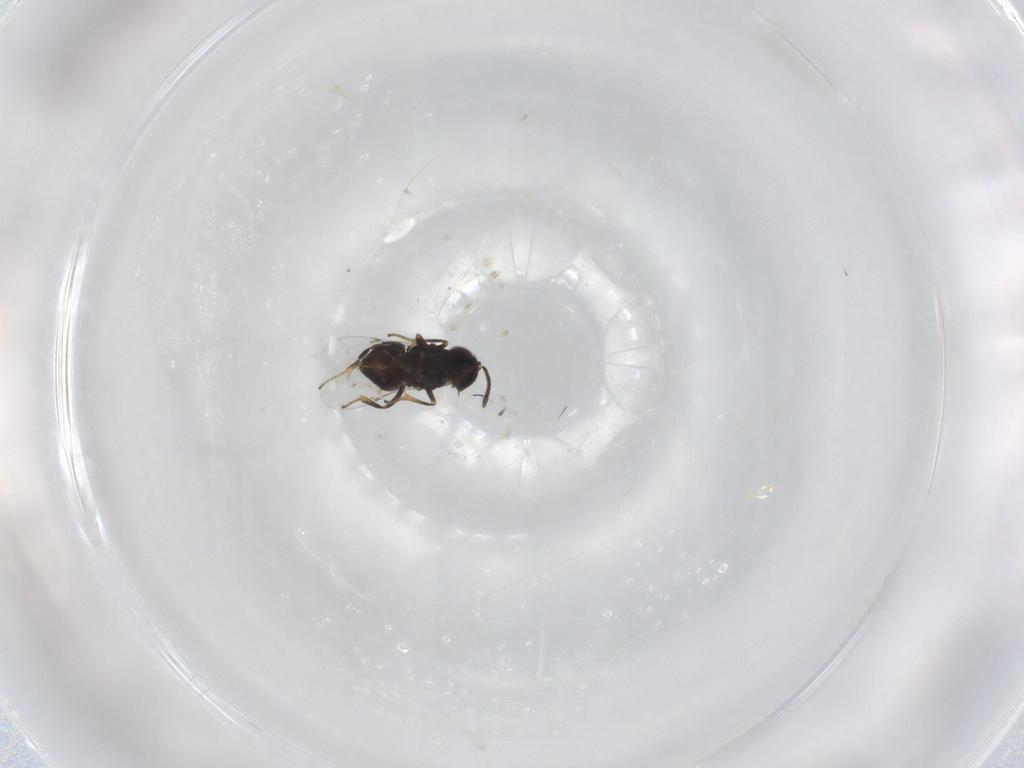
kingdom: Animalia
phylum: Arthropoda
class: Insecta
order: Hymenoptera
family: Encyrtidae
